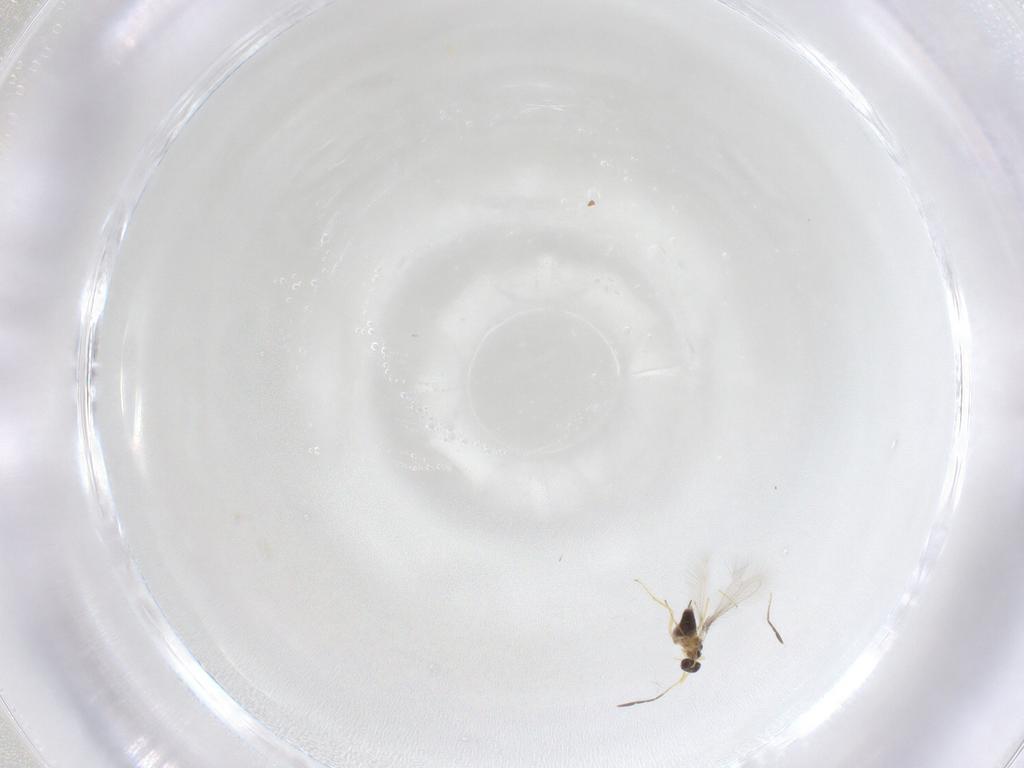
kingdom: Animalia
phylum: Arthropoda
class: Insecta
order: Hymenoptera
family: Mymaridae
